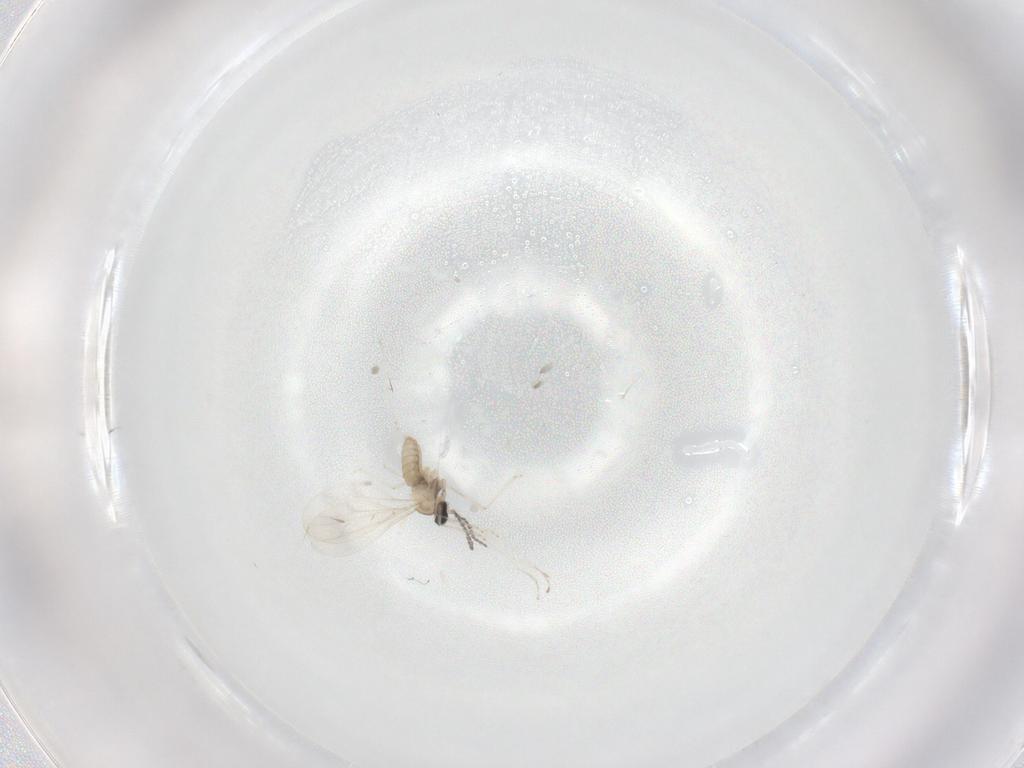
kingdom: Animalia
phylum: Arthropoda
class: Insecta
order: Diptera
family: Cecidomyiidae
